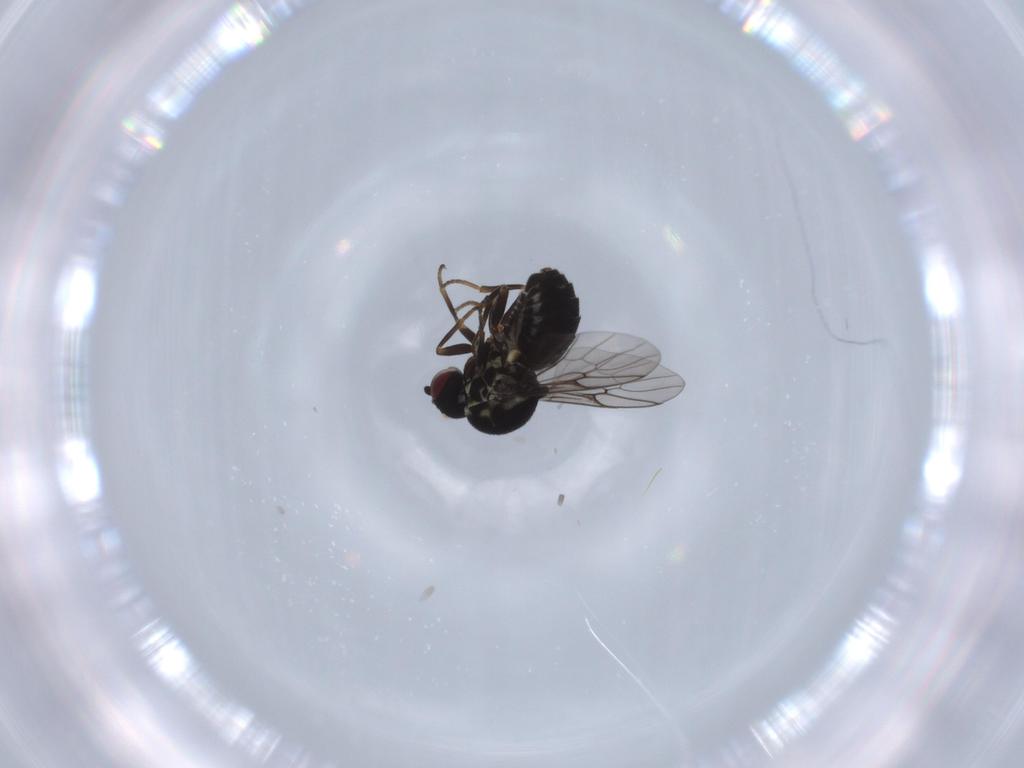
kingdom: Animalia
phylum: Arthropoda
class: Insecta
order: Diptera
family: Bombyliidae
